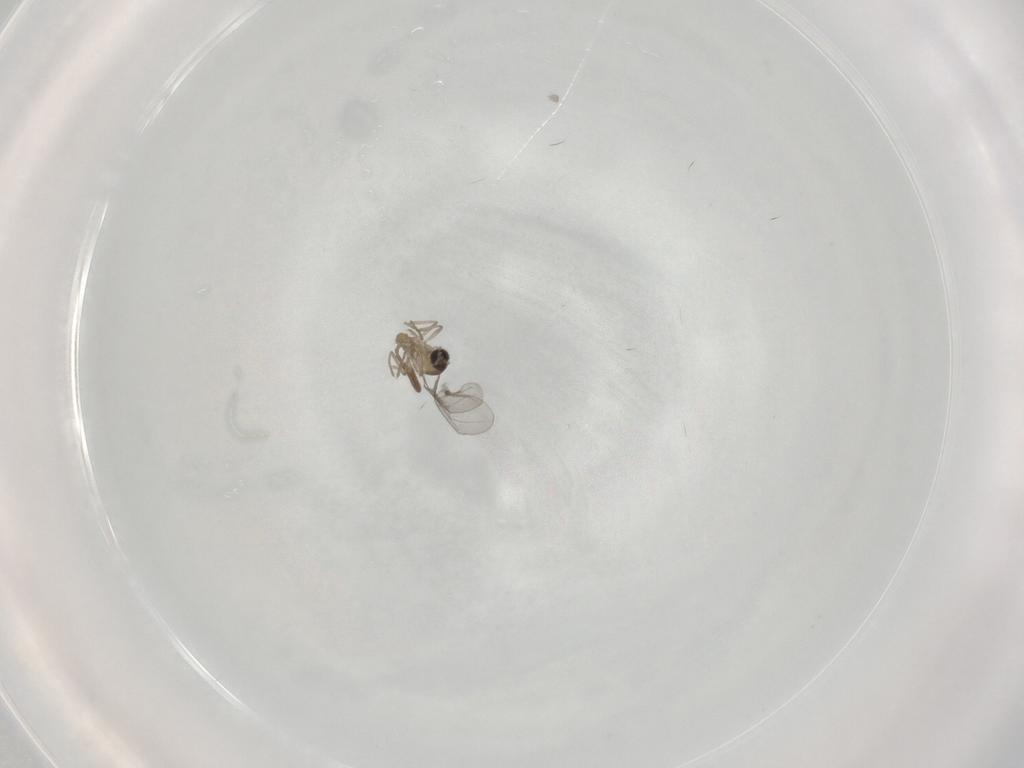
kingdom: Animalia
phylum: Arthropoda
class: Insecta
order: Diptera
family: Cecidomyiidae
